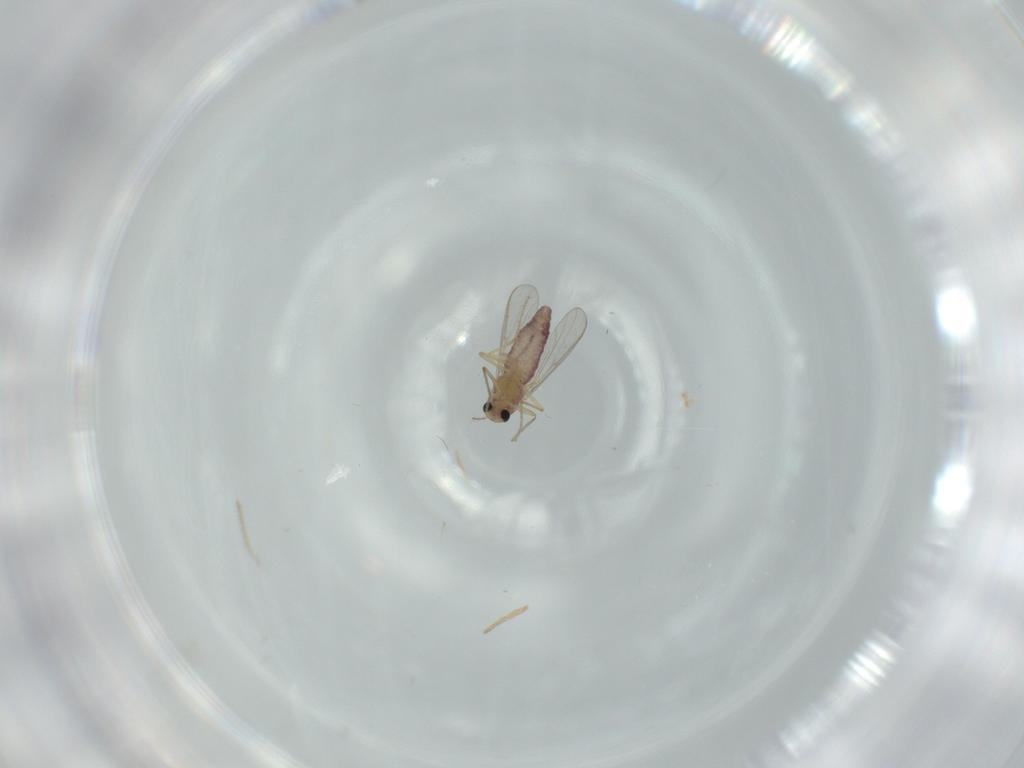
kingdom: Animalia
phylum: Arthropoda
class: Insecta
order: Diptera
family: Chironomidae
